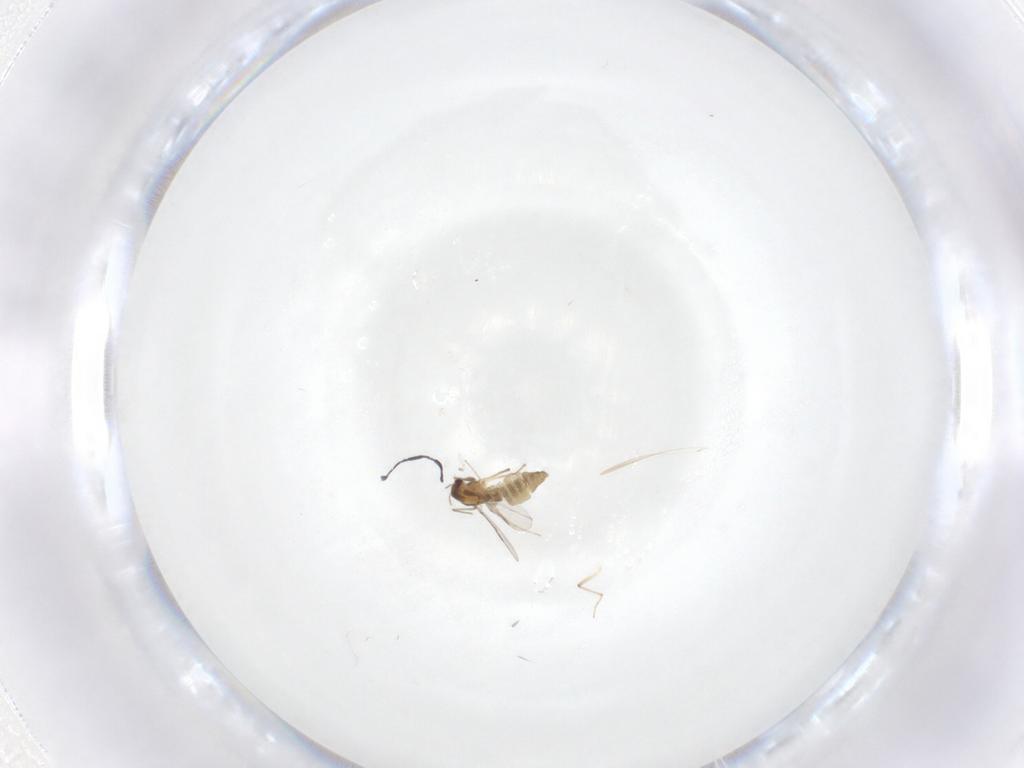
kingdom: Animalia
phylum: Arthropoda
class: Insecta
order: Diptera
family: Chironomidae
